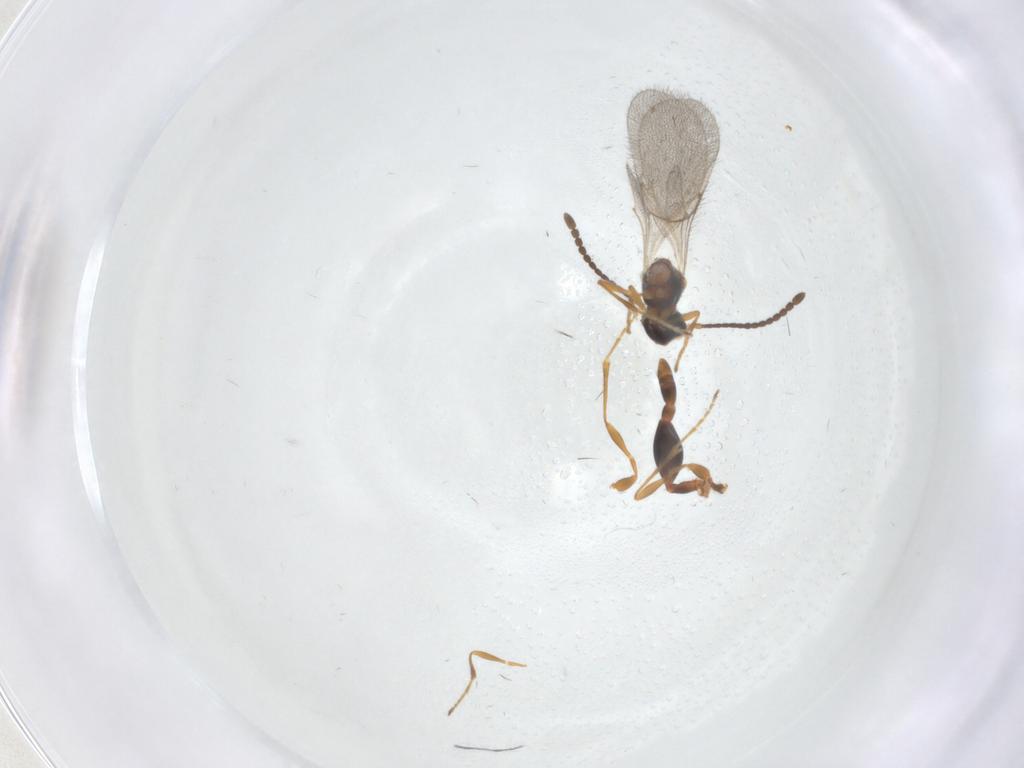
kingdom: Animalia
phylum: Arthropoda
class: Insecta
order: Hymenoptera
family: Diapriidae
